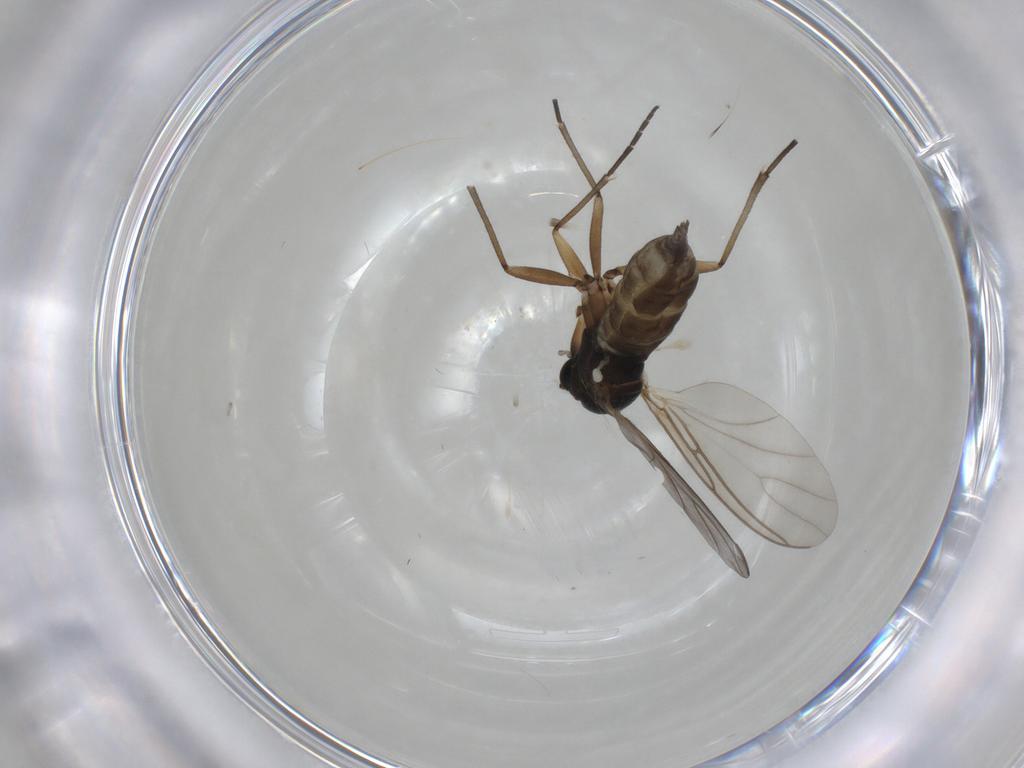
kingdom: Animalia
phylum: Arthropoda
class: Insecta
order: Diptera
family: Sciaridae
